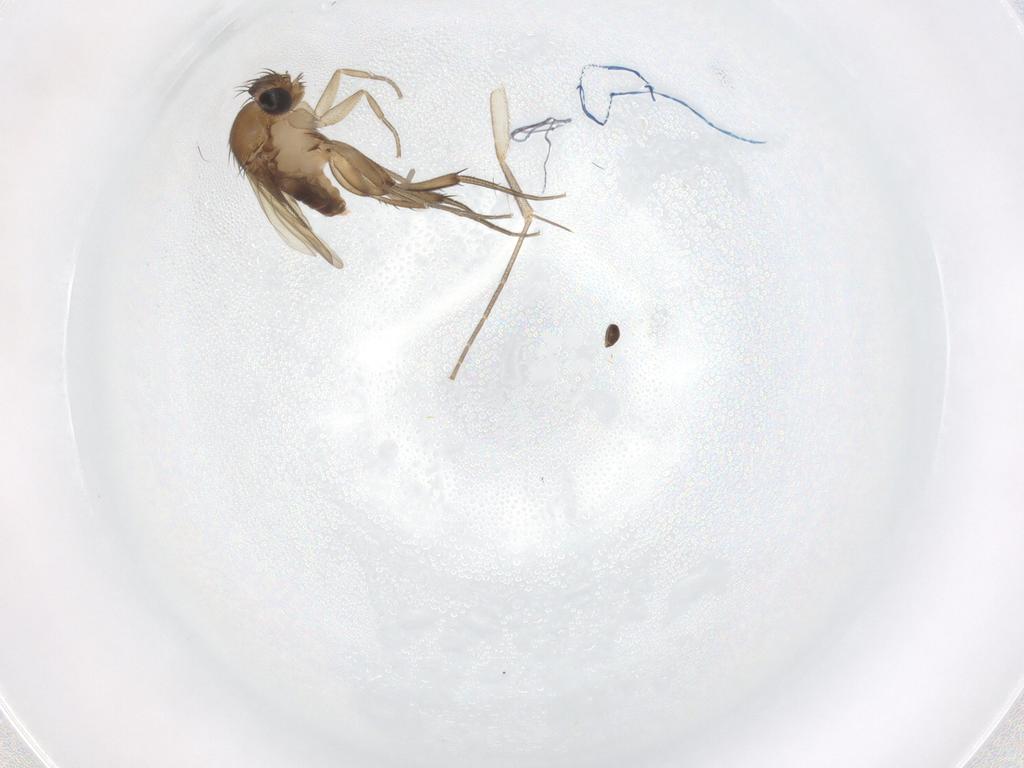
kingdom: Animalia
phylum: Arthropoda
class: Insecta
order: Diptera
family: Phoridae
